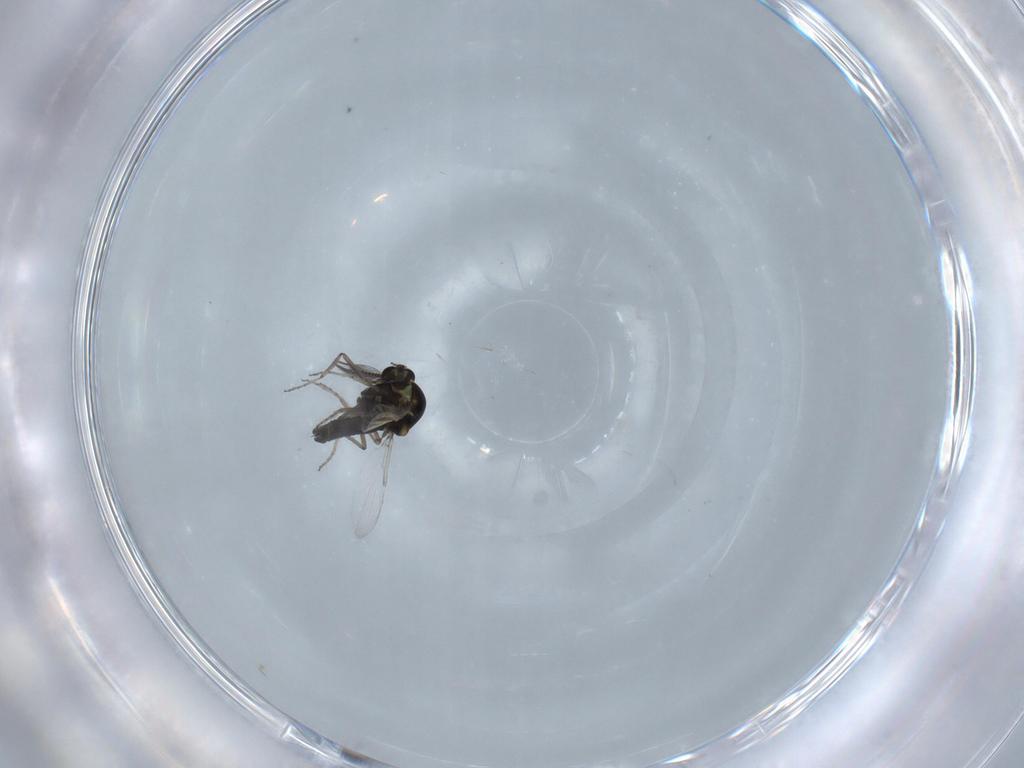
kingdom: Animalia
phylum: Arthropoda
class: Insecta
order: Diptera
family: Ceratopogonidae
